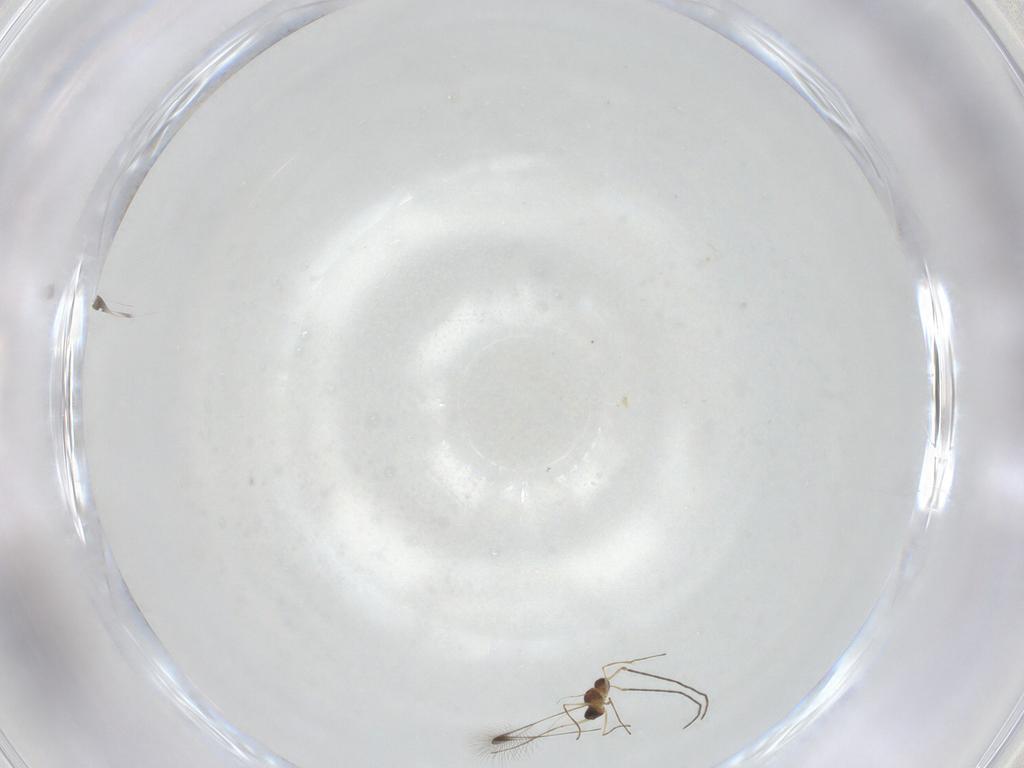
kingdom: Animalia
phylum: Arthropoda
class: Insecta
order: Hymenoptera
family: Mymaridae
